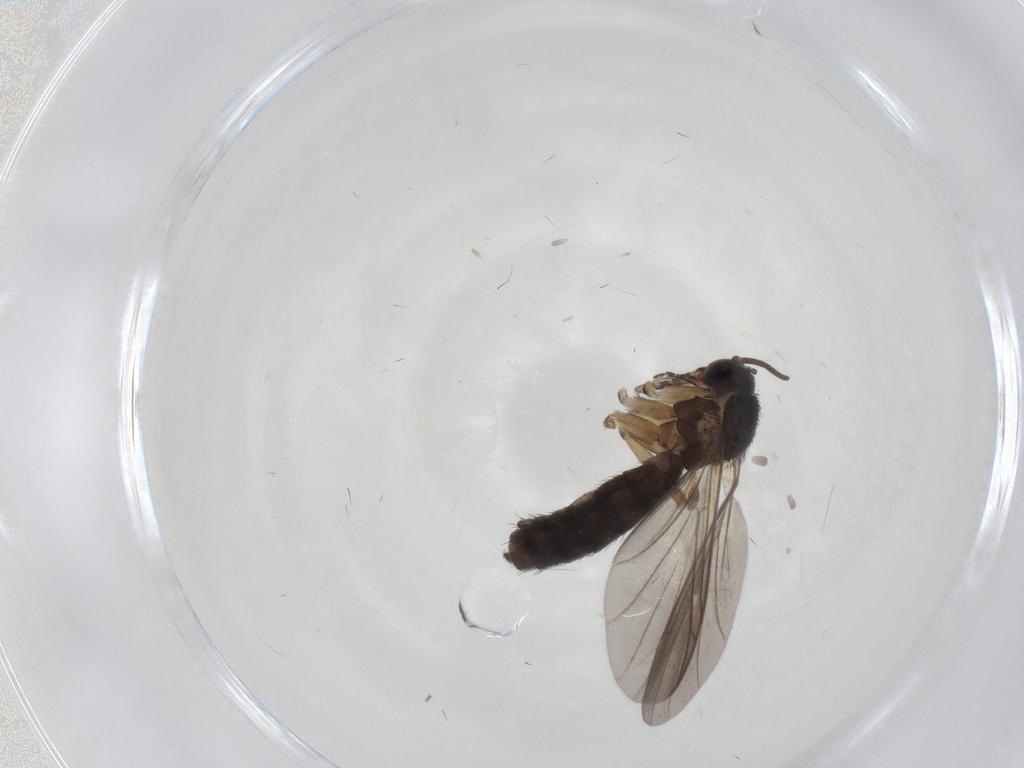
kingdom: Animalia
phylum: Arthropoda
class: Insecta
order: Diptera
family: Keroplatidae
